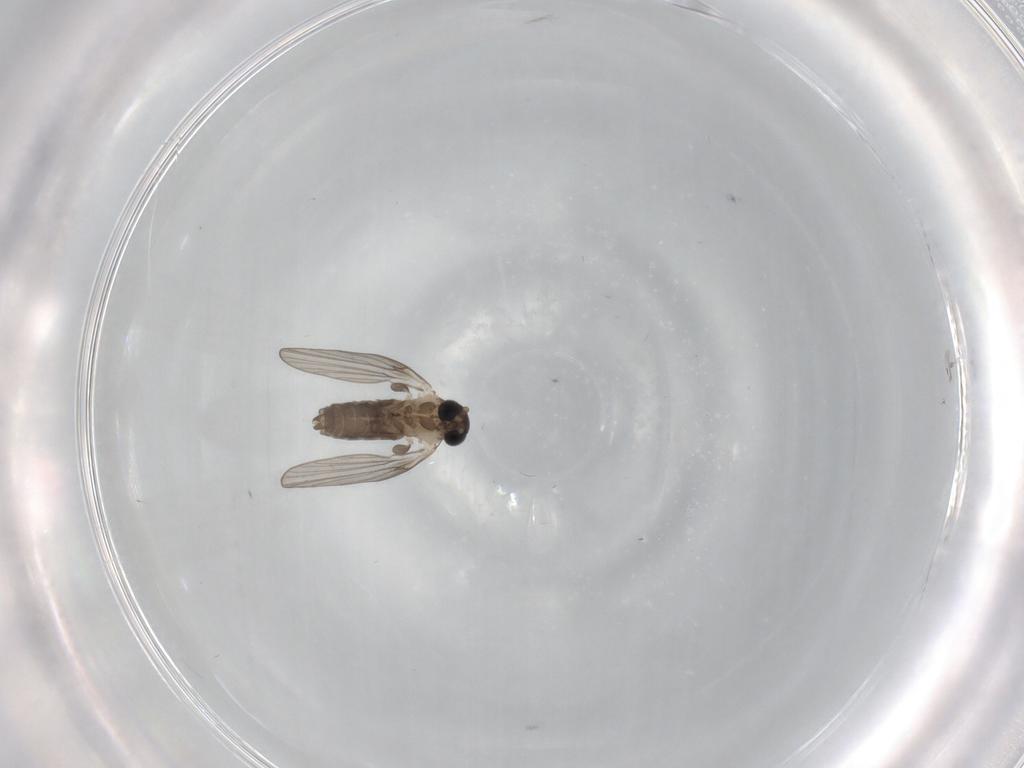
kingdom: Animalia
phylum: Arthropoda
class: Insecta
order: Diptera
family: Psychodidae
